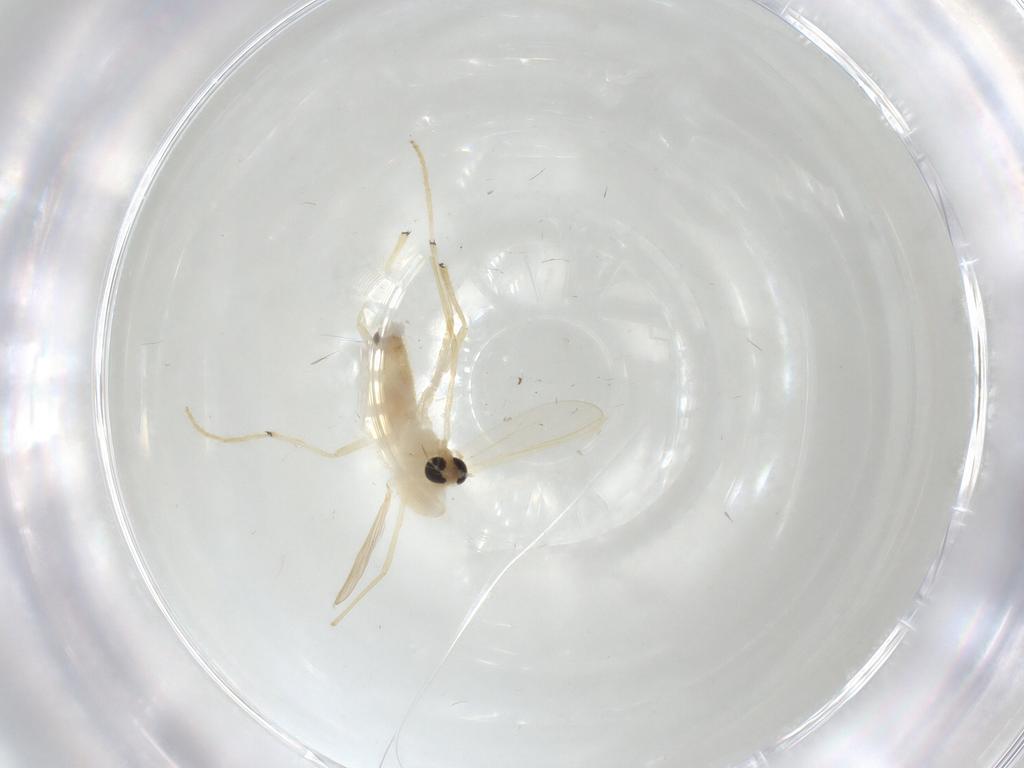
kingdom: Animalia
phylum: Arthropoda
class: Insecta
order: Diptera
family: Chironomidae
